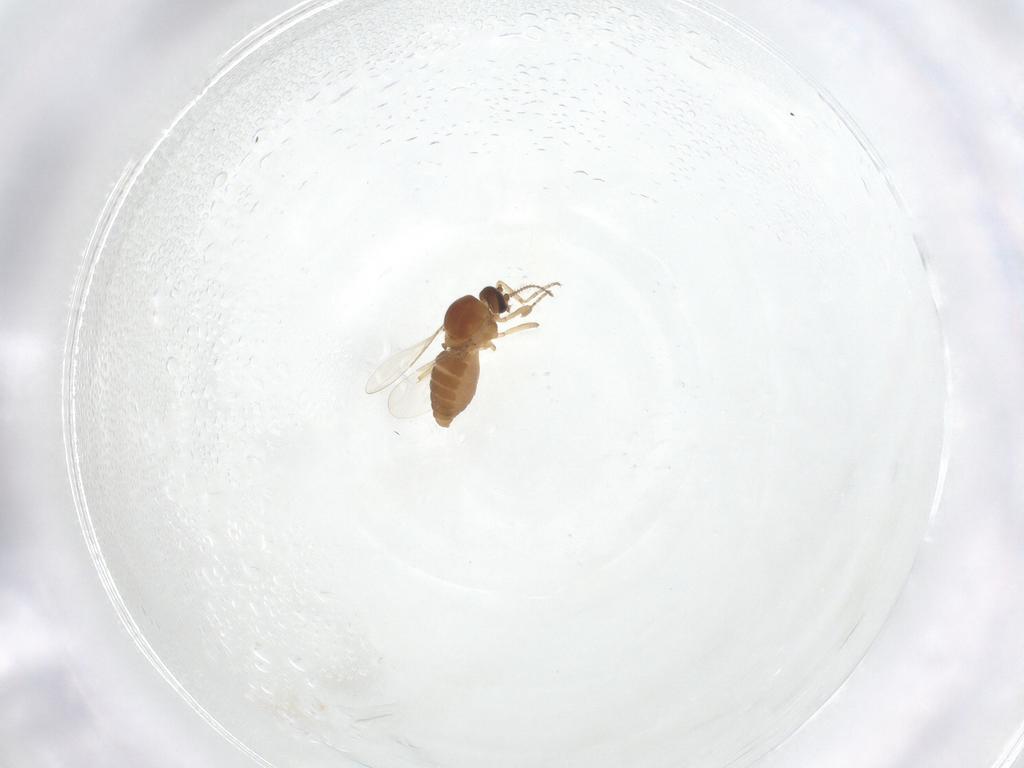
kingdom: Animalia
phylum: Arthropoda
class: Insecta
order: Diptera
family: Ceratopogonidae
